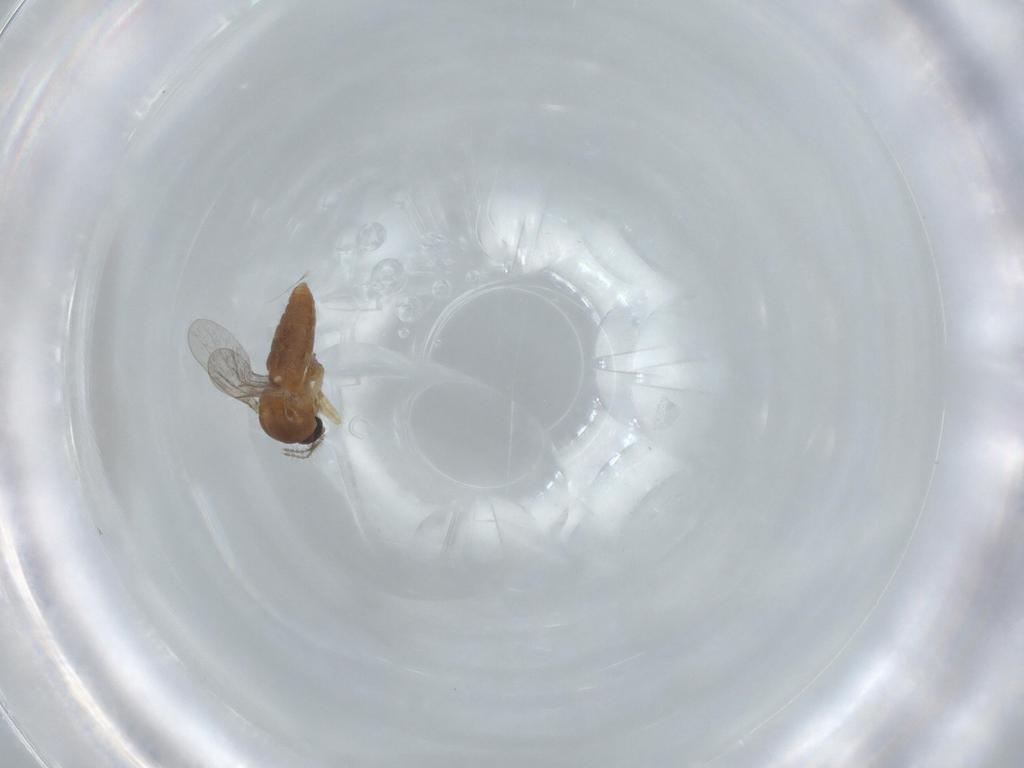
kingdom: Animalia
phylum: Arthropoda
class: Insecta
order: Diptera
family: Ceratopogonidae
